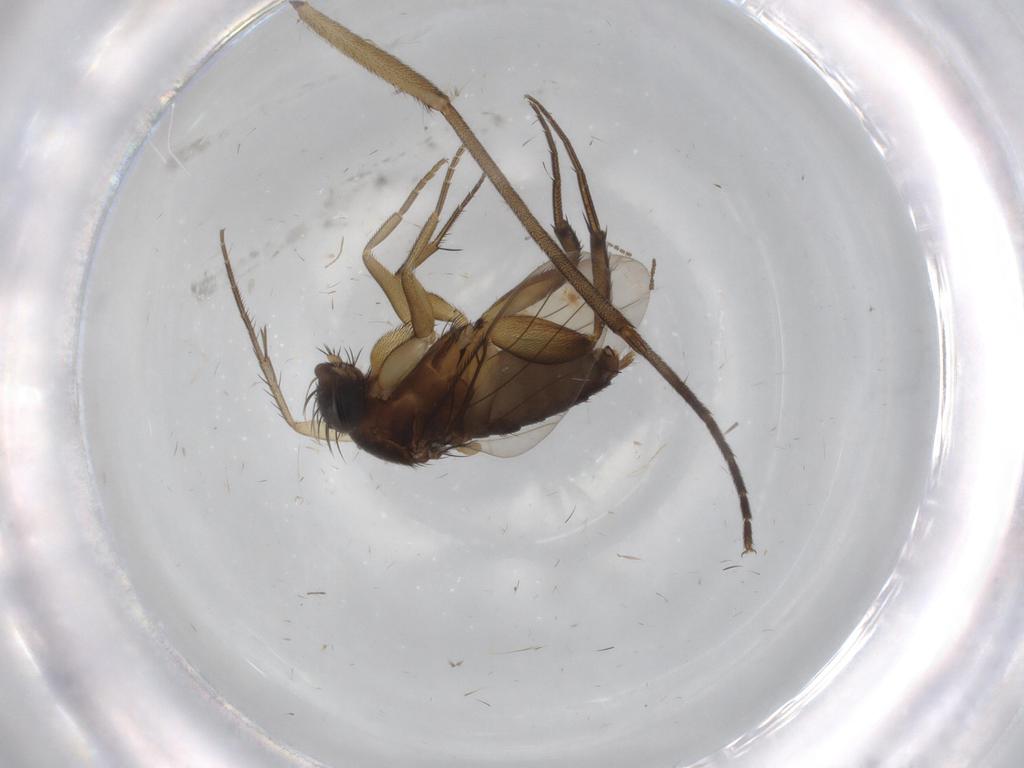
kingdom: Animalia
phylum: Arthropoda
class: Insecta
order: Diptera
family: Phoridae
